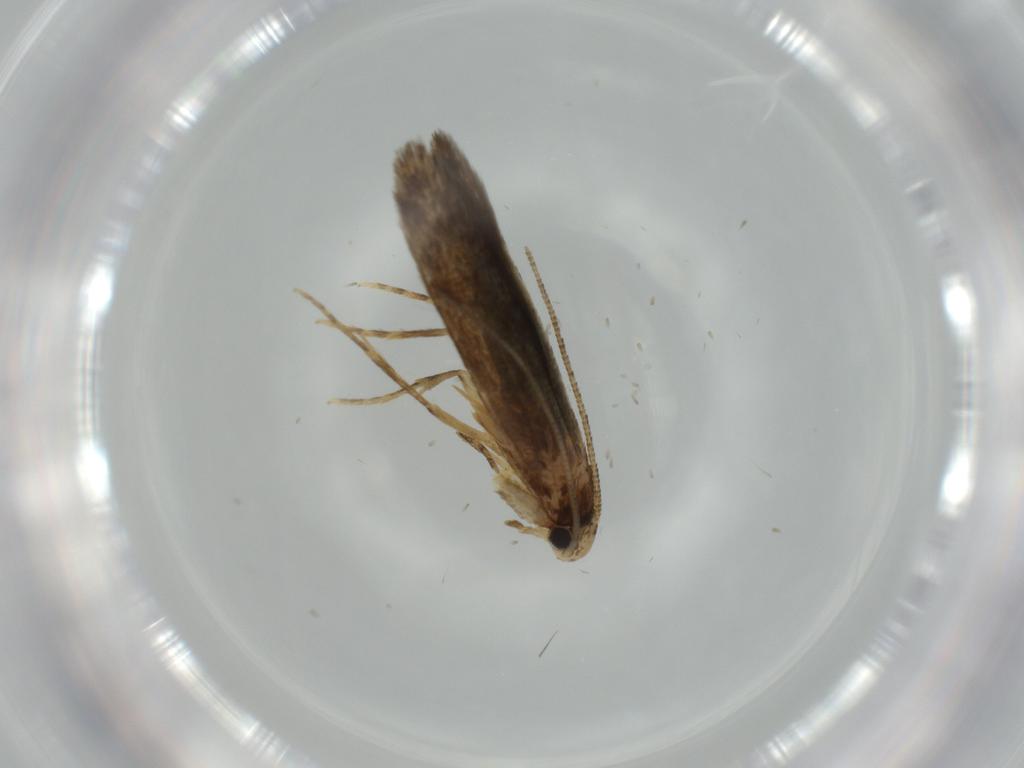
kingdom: Animalia
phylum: Arthropoda
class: Insecta
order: Lepidoptera
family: Tineidae
